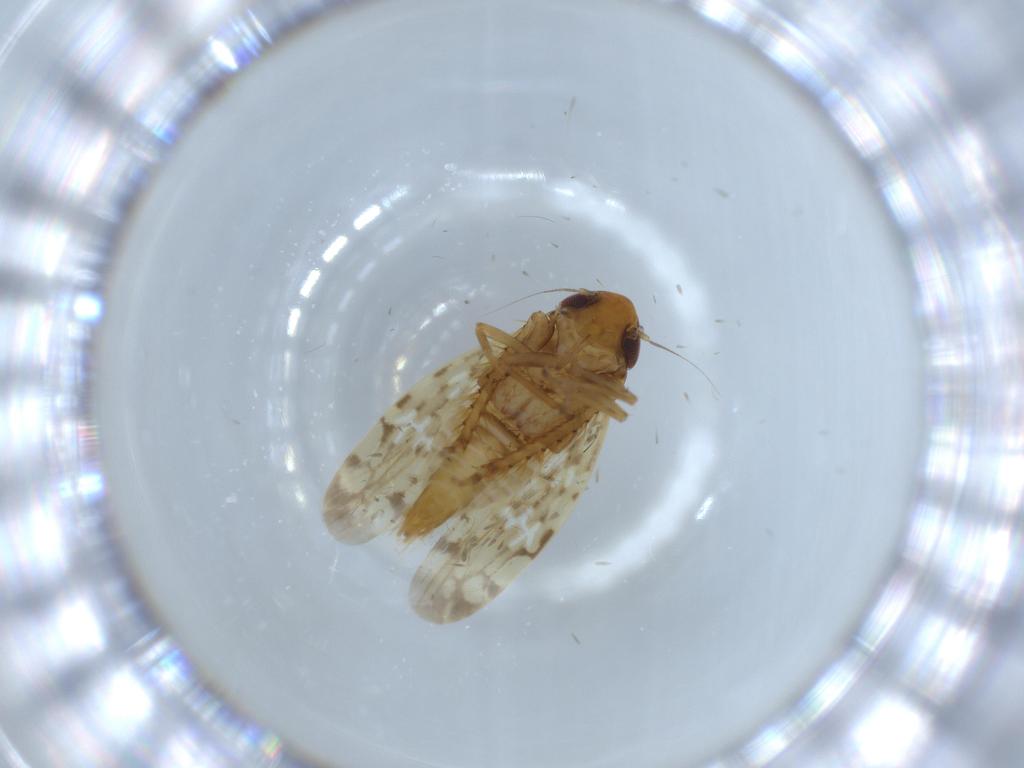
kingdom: Animalia
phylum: Arthropoda
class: Insecta
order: Hemiptera
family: Cicadellidae
